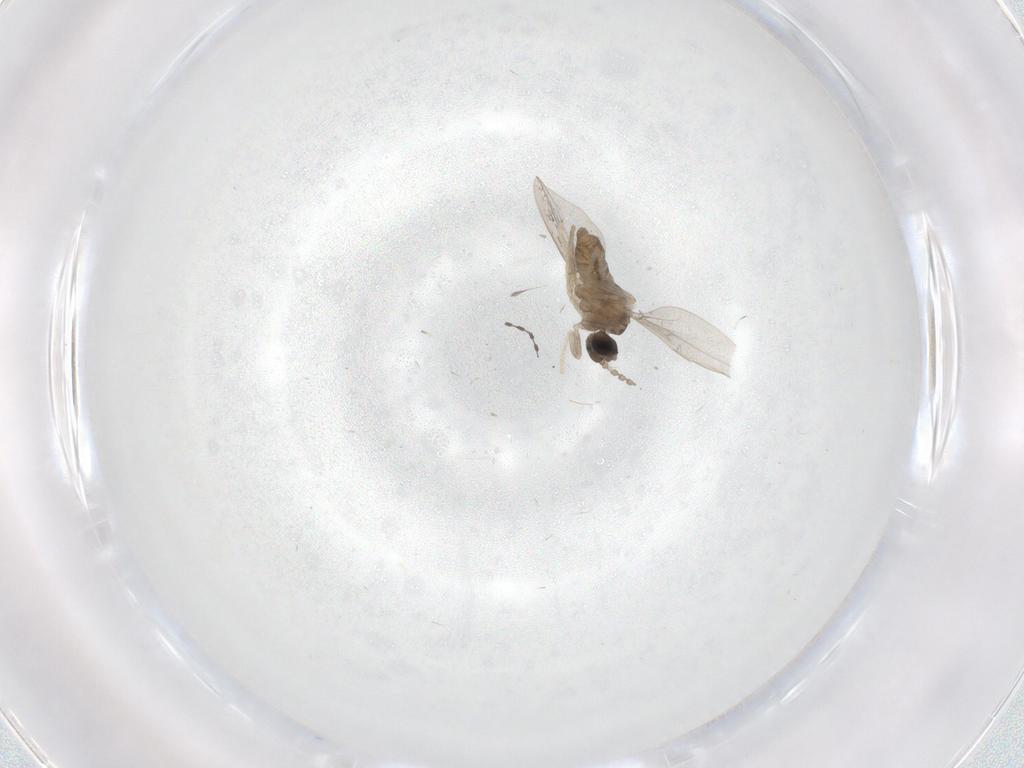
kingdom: Animalia
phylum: Arthropoda
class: Insecta
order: Diptera
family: Cecidomyiidae
